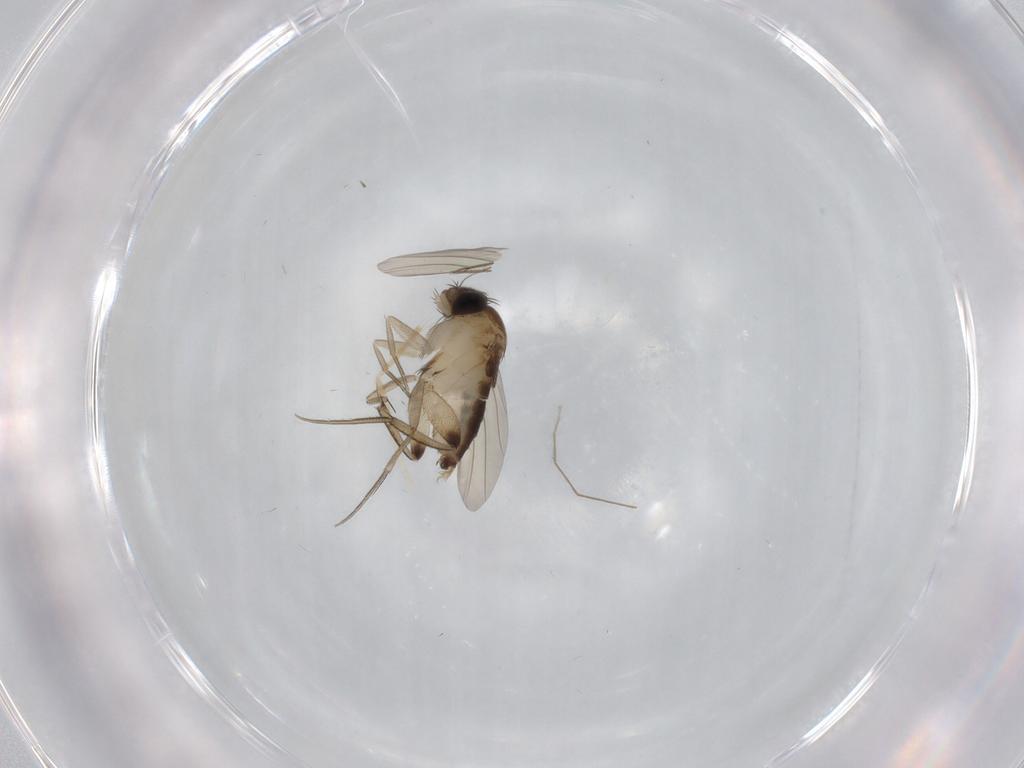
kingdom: Animalia
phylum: Arthropoda
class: Insecta
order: Diptera
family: Phoridae
